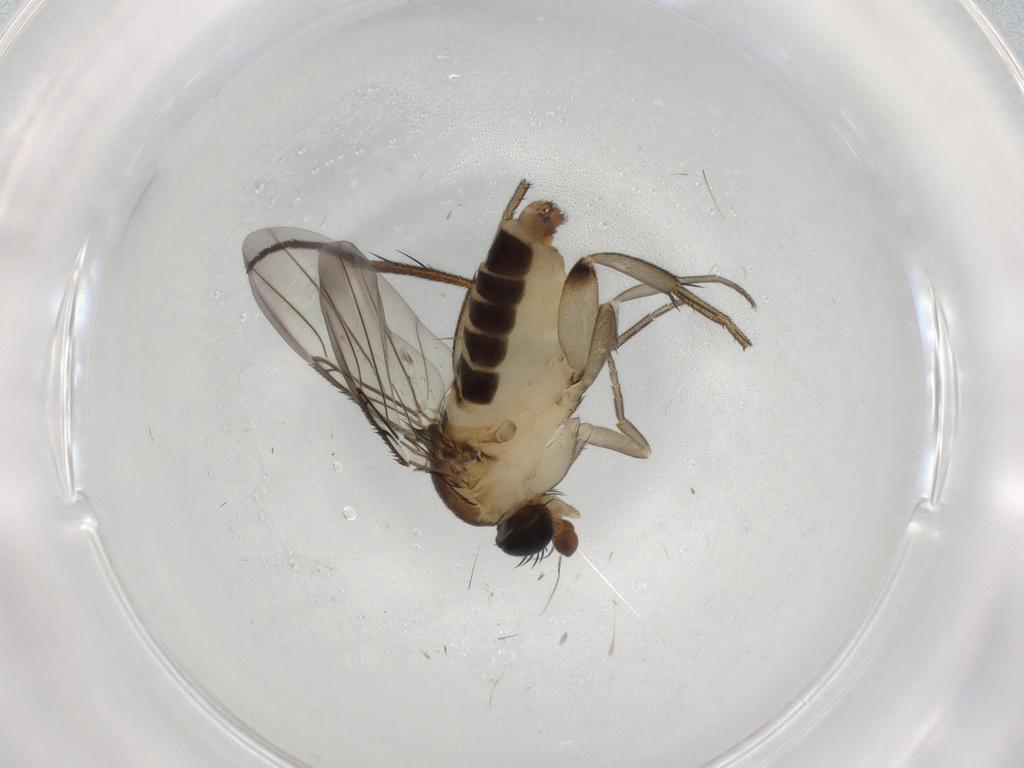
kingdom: Animalia
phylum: Arthropoda
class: Insecta
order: Diptera
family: Phoridae
